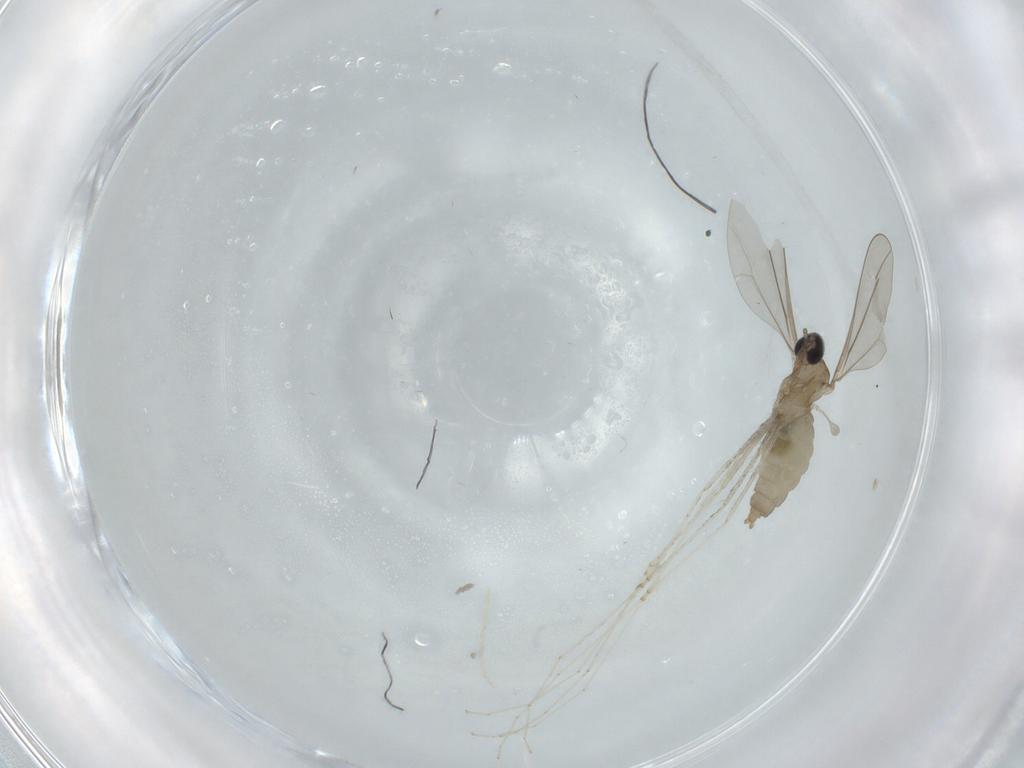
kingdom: Animalia
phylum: Arthropoda
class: Insecta
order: Diptera
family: Cecidomyiidae
